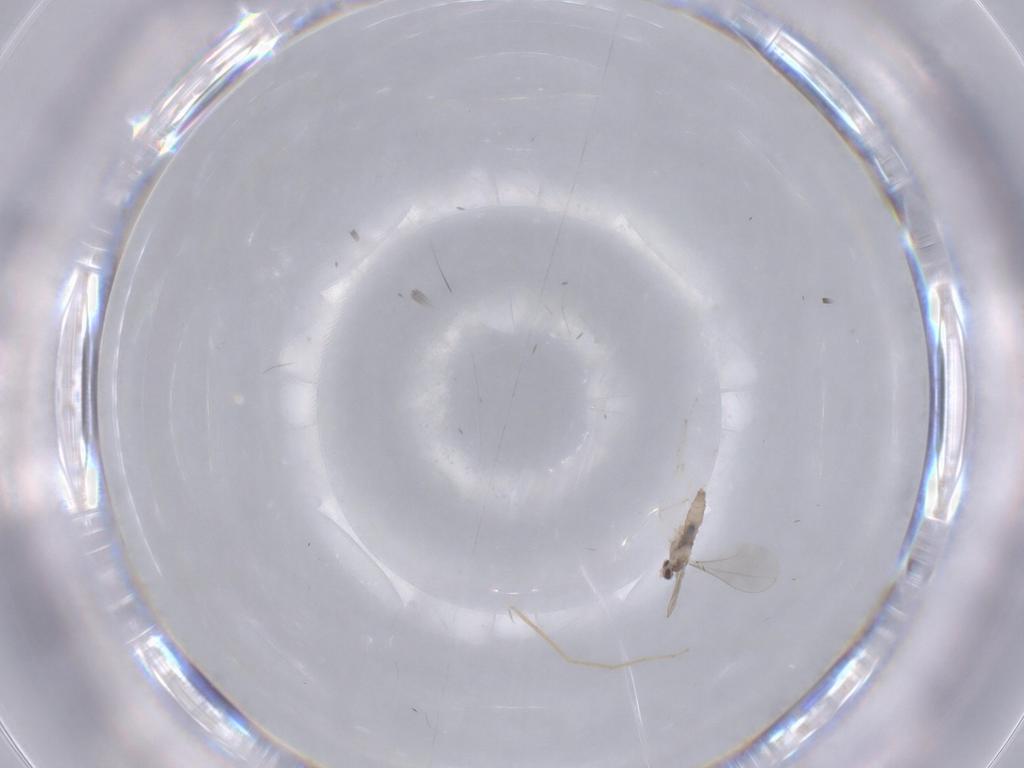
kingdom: Animalia
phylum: Arthropoda
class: Insecta
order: Diptera
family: Cecidomyiidae
